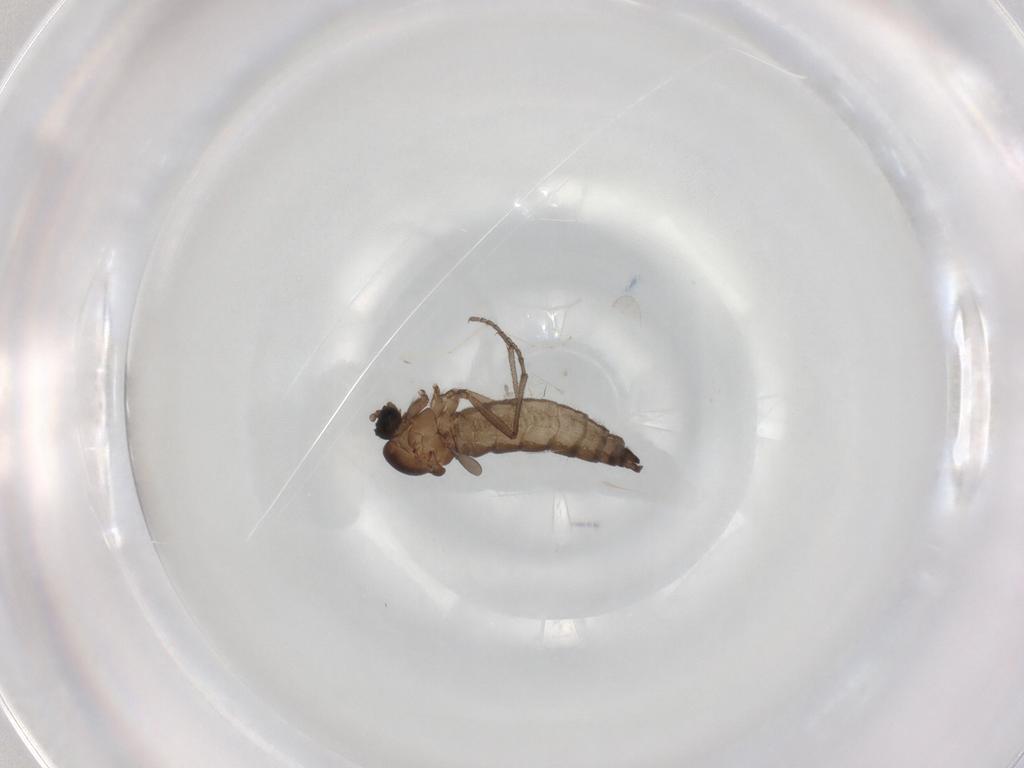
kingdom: Animalia
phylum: Arthropoda
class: Insecta
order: Diptera
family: Sciaridae
